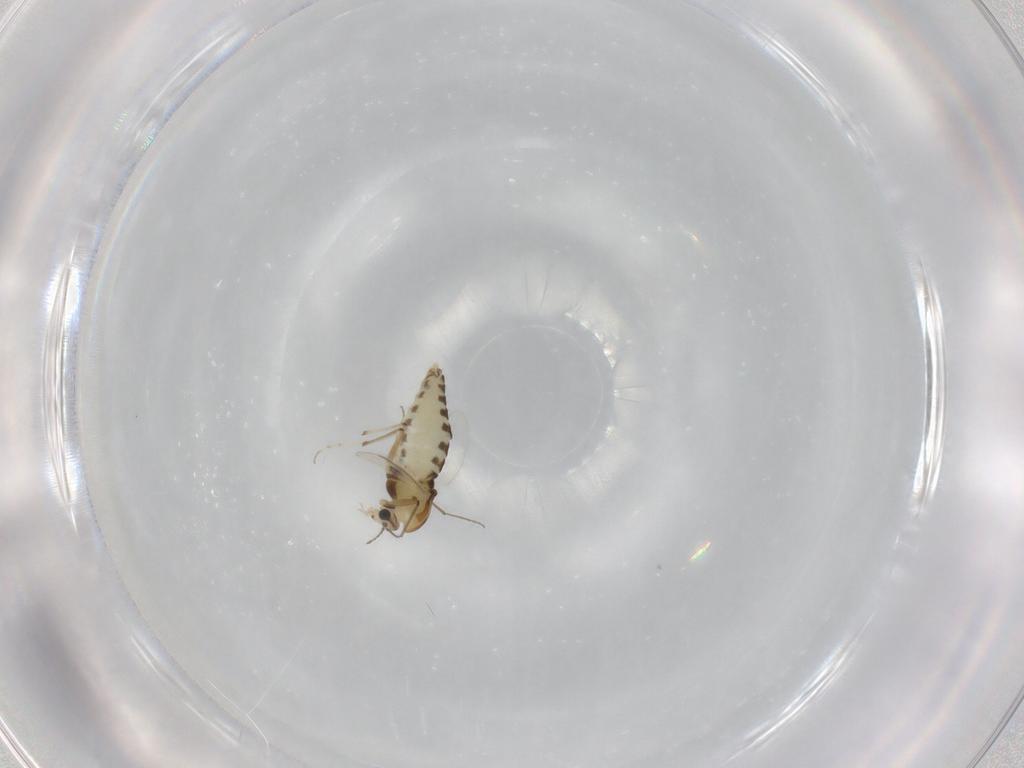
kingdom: Animalia
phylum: Arthropoda
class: Insecta
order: Diptera
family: Chironomidae
